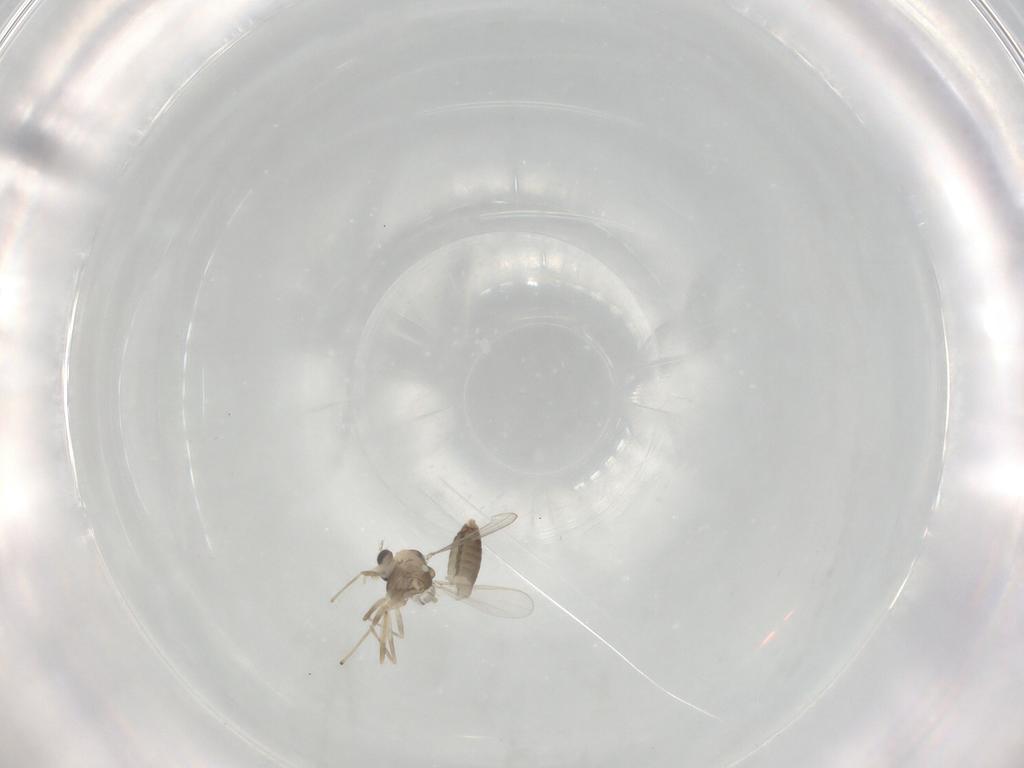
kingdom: Animalia
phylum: Arthropoda
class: Insecta
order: Diptera
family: Chironomidae
